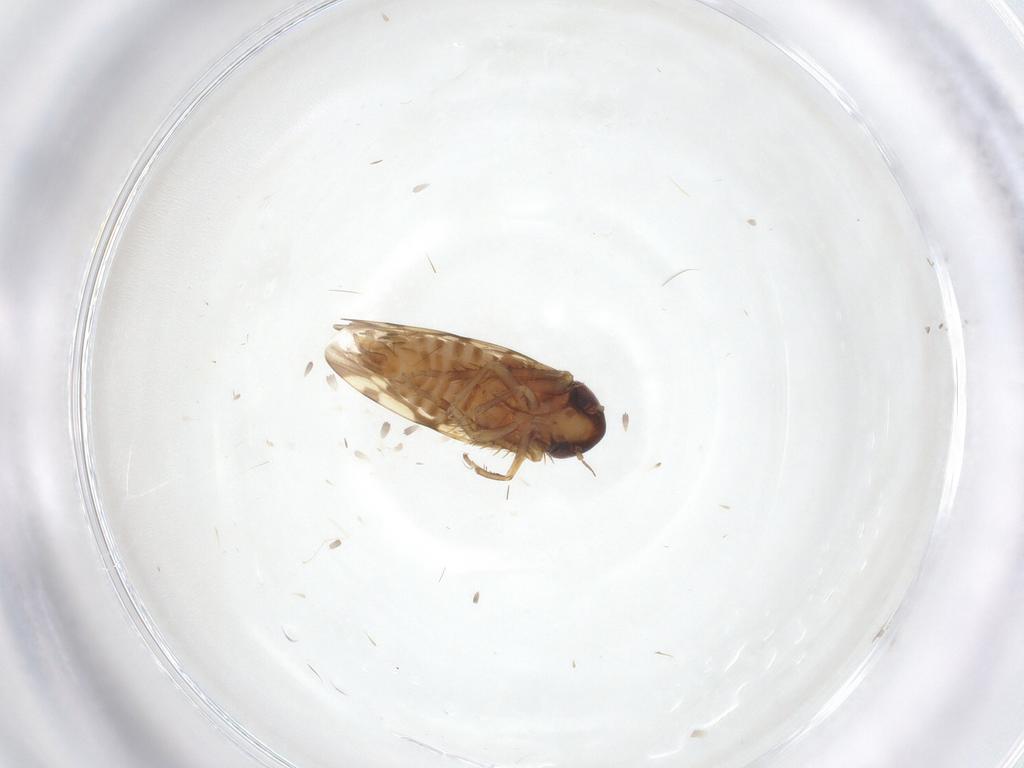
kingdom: Animalia
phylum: Arthropoda
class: Insecta
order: Hemiptera
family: Cicadellidae
